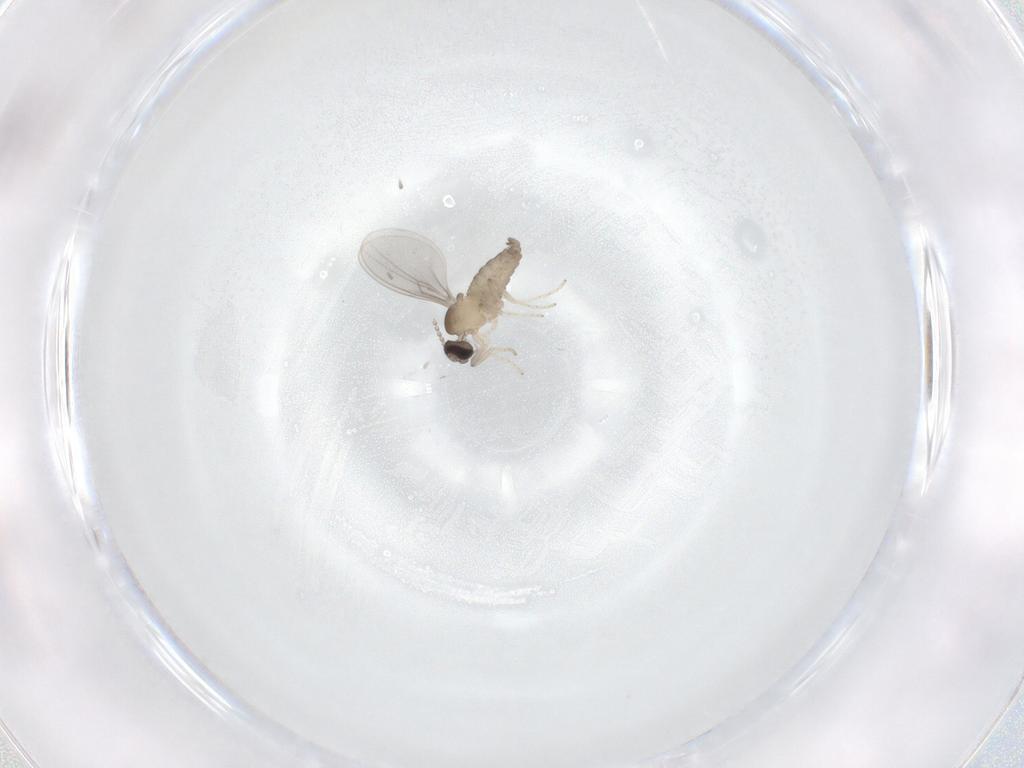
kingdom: Animalia
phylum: Arthropoda
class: Insecta
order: Diptera
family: Cecidomyiidae
